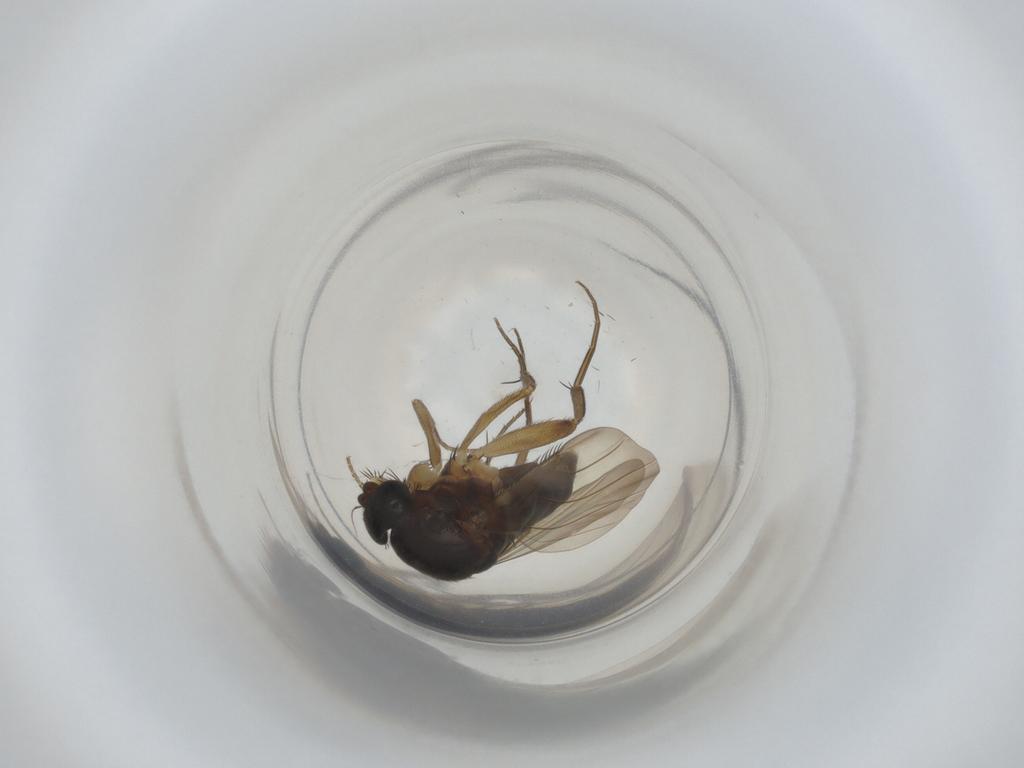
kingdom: Animalia
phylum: Arthropoda
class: Insecta
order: Diptera
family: Phoridae
